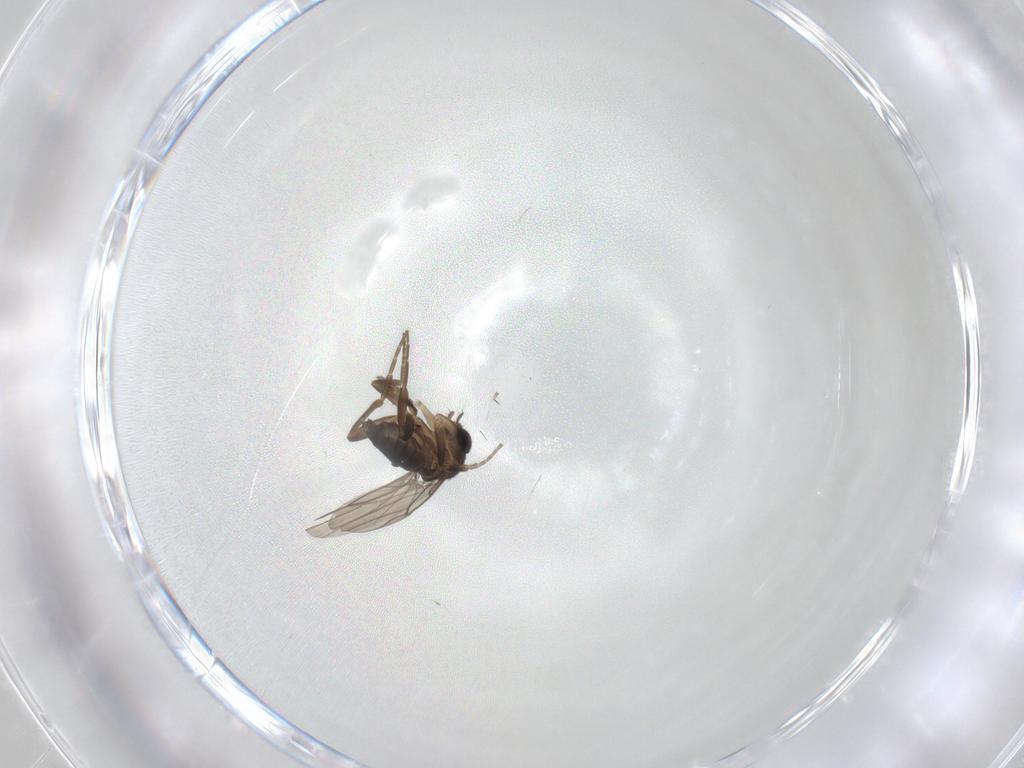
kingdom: Animalia
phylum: Arthropoda
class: Insecta
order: Diptera
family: Phoridae
